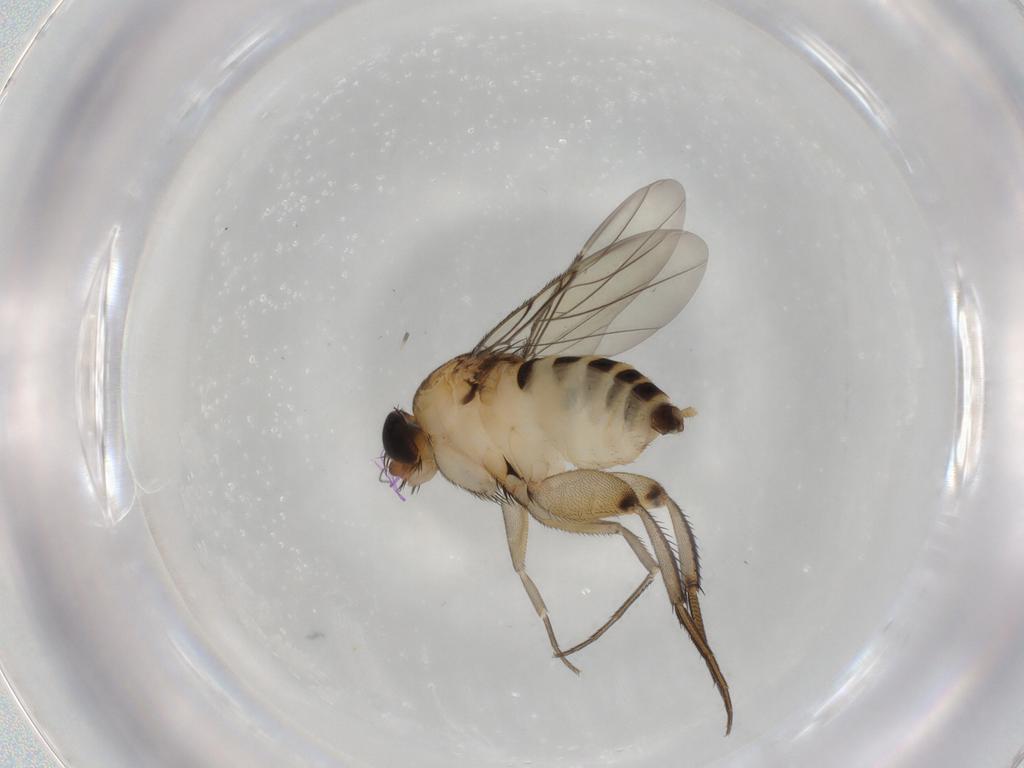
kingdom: Animalia
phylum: Arthropoda
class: Insecta
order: Diptera
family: Phoridae
